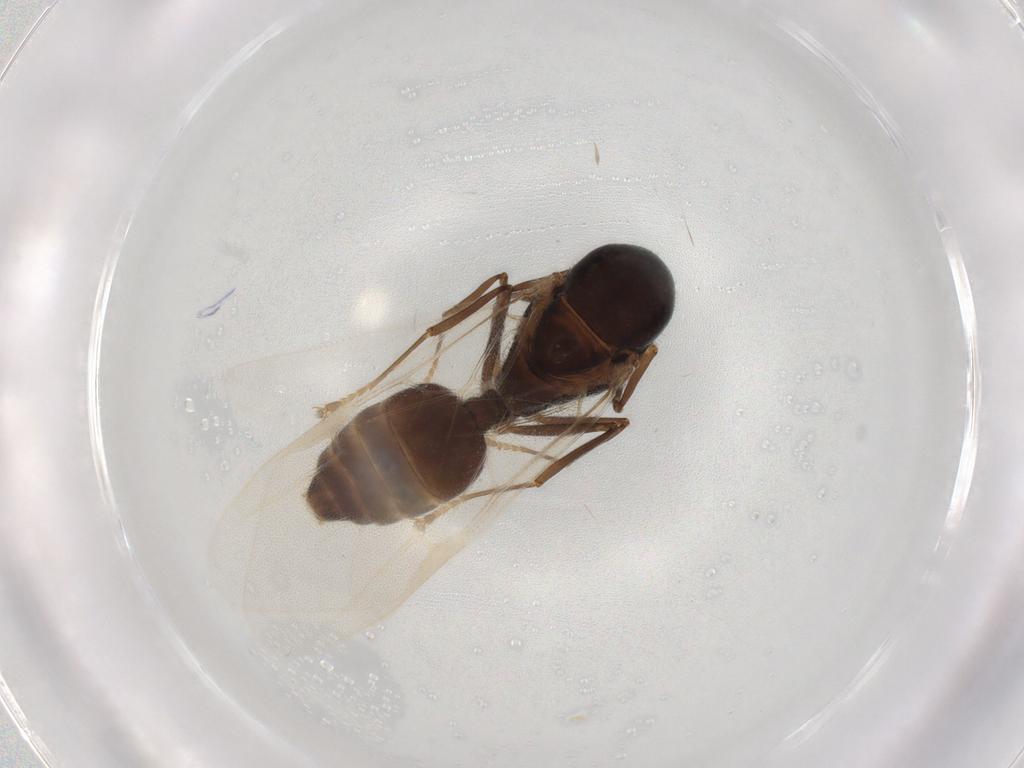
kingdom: Animalia
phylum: Arthropoda
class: Insecta
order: Hymenoptera
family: Formicidae
